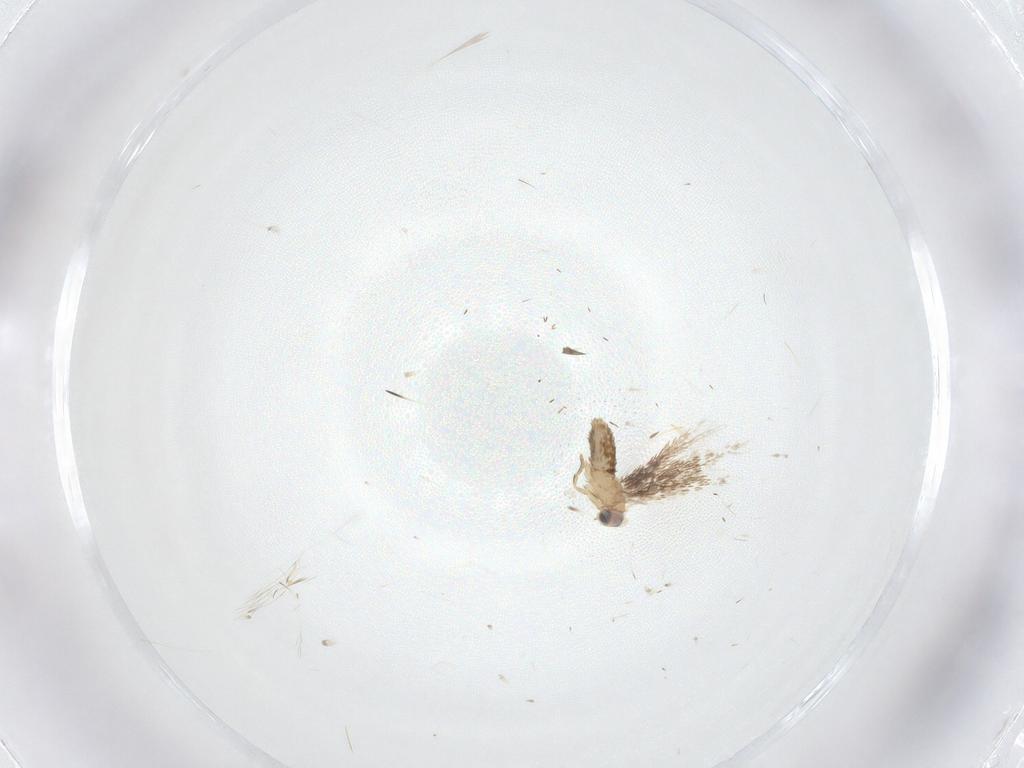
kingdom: Animalia
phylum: Arthropoda
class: Insecta
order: Lepidoptera
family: Nepticulidae
